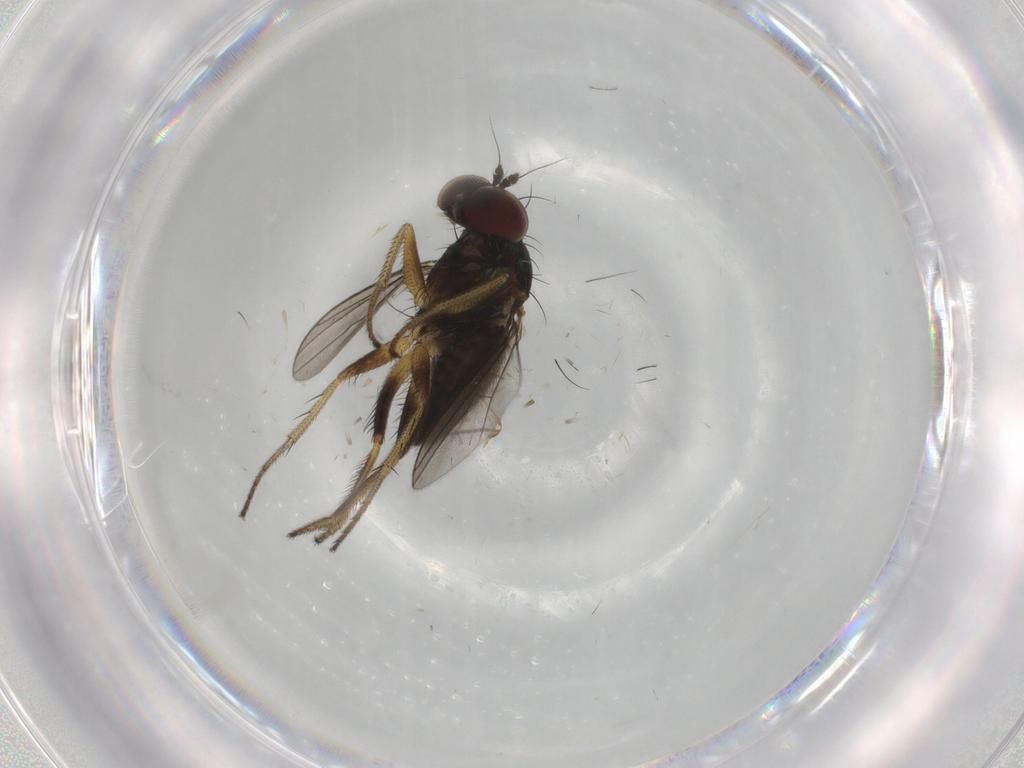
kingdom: Animalia
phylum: Arthropoda
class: Insecta
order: Diptera
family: Dolichopodidae
